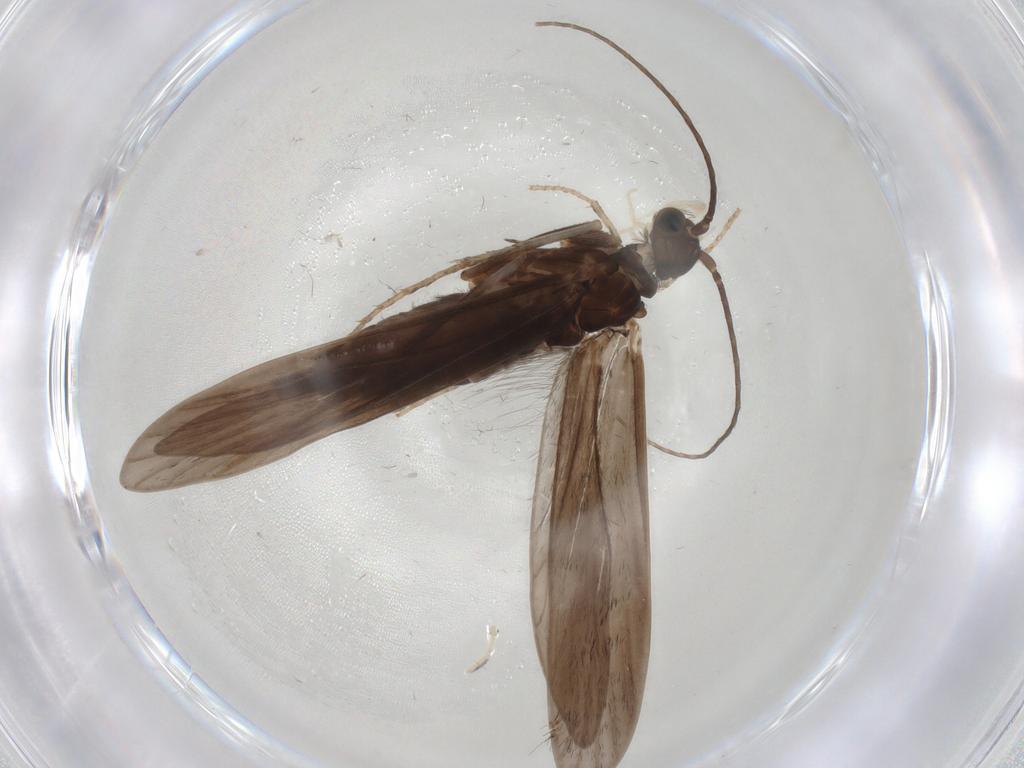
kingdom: Animalia
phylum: Arthropoda
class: Insecta
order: Trichoptera
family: Xiphocentronidae
